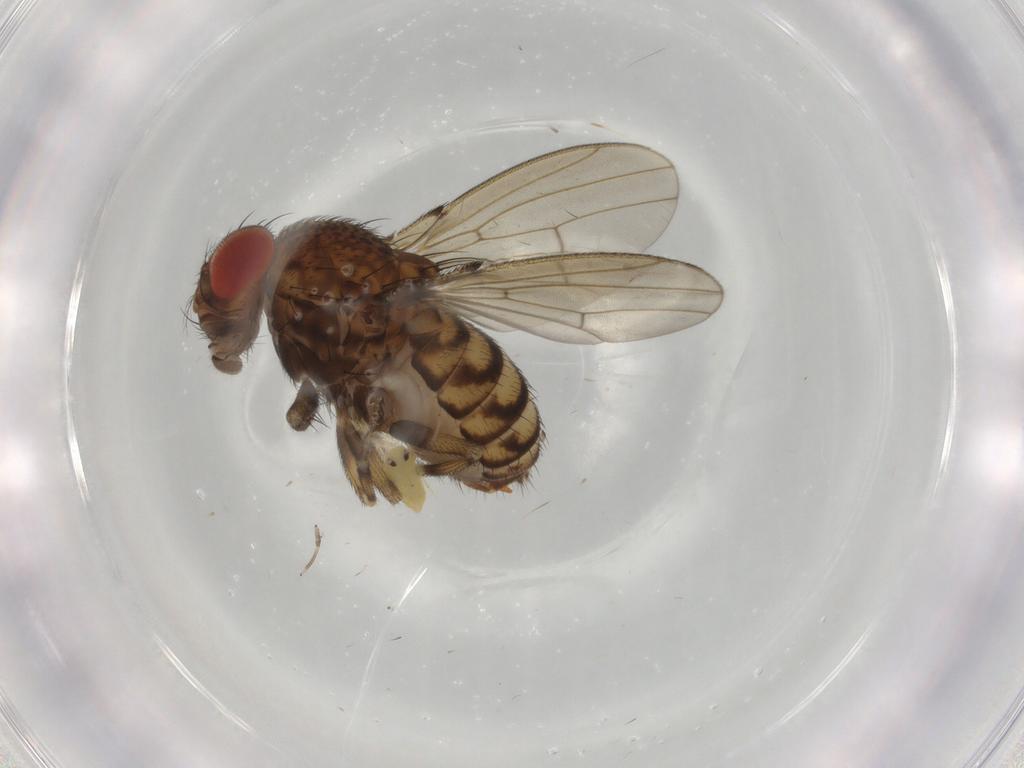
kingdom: Animalia
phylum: Arthropoda
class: Insecta
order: Diptera
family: Drosophilidae
